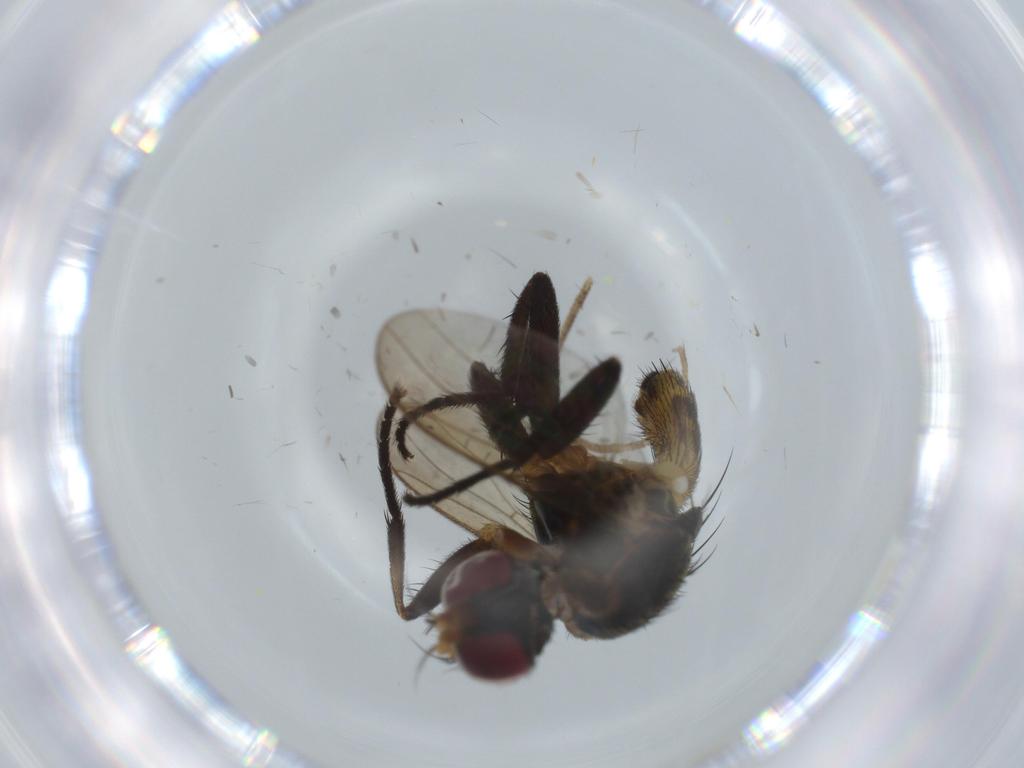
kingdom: Animalia
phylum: Arthropoda
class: Insecta
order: Diptera
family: Anthomyiidae
